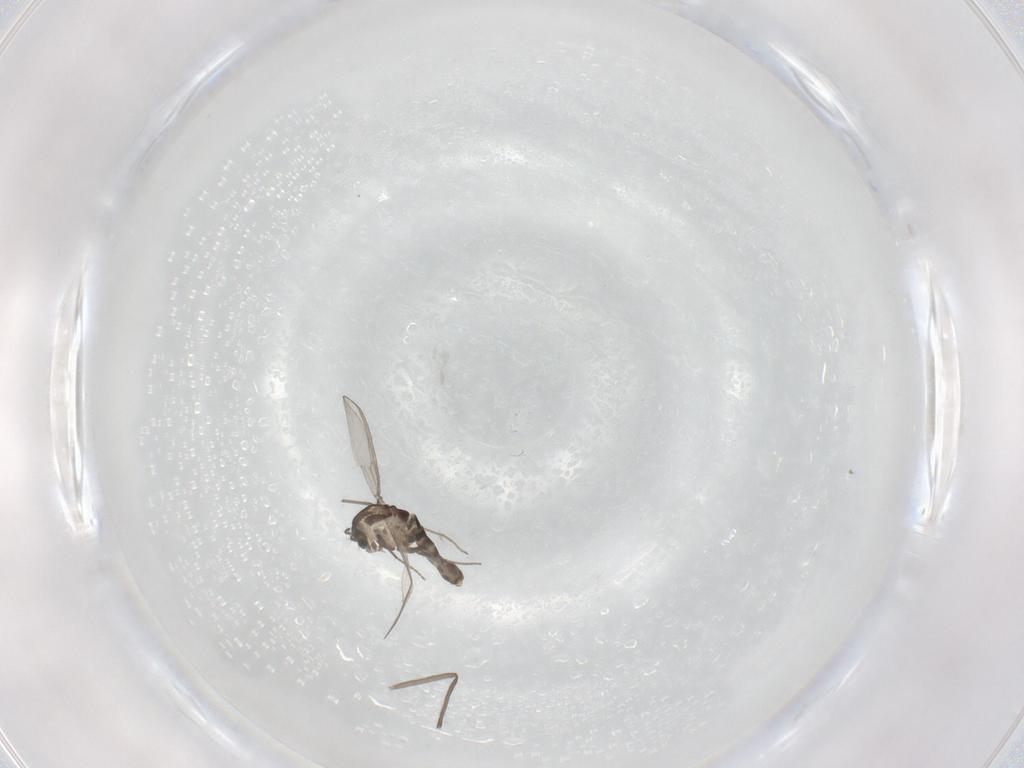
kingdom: Animalia
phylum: Arthropoda
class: Insecta
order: Diptera
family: Chironomidae
